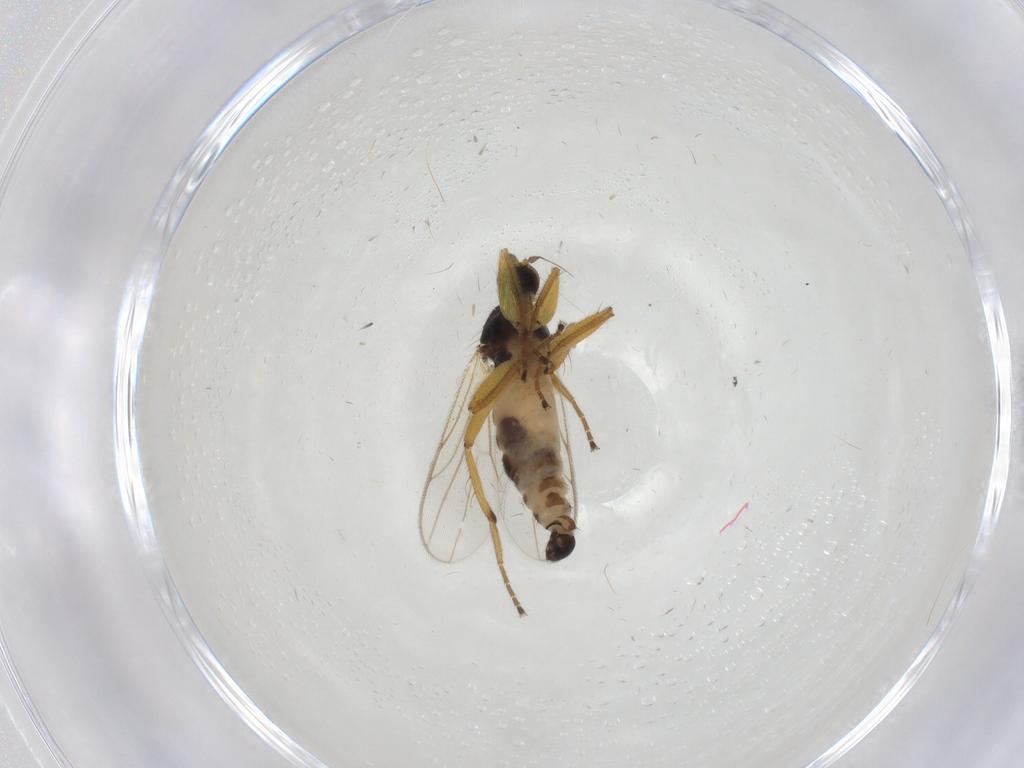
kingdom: Animalia
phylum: Arthropoda
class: Insecta
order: Diptera
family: Hybotidae
